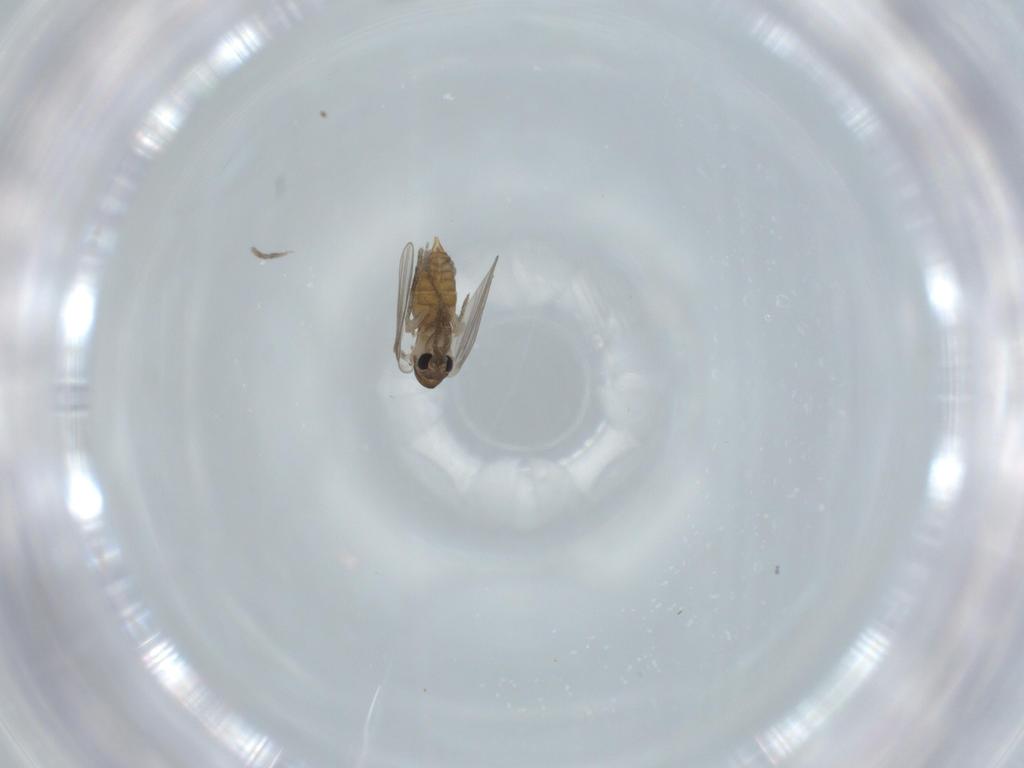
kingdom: Animalia
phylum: Arthropoda
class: Insecta
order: Diptera
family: Psychodidae
